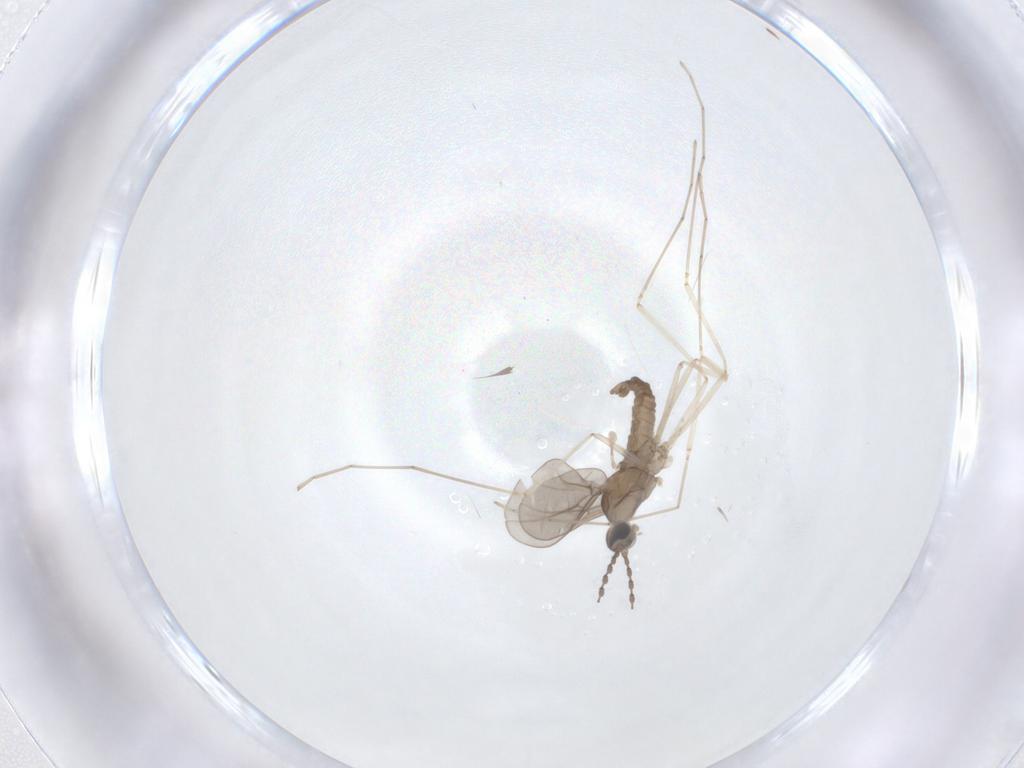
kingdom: Animalia
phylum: Arthropoda
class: Insecta
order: Diptera
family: Cecidomyiidae
